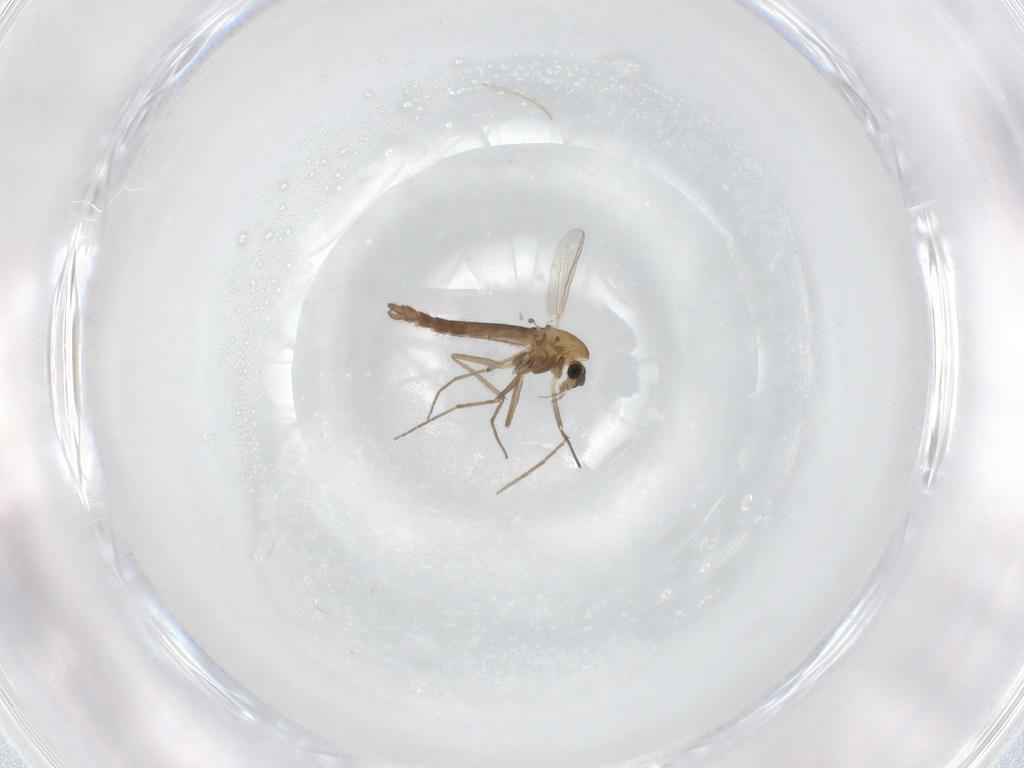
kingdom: Animalia
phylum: Arthropoda
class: Insecta
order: Diptera
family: Chironomidae
